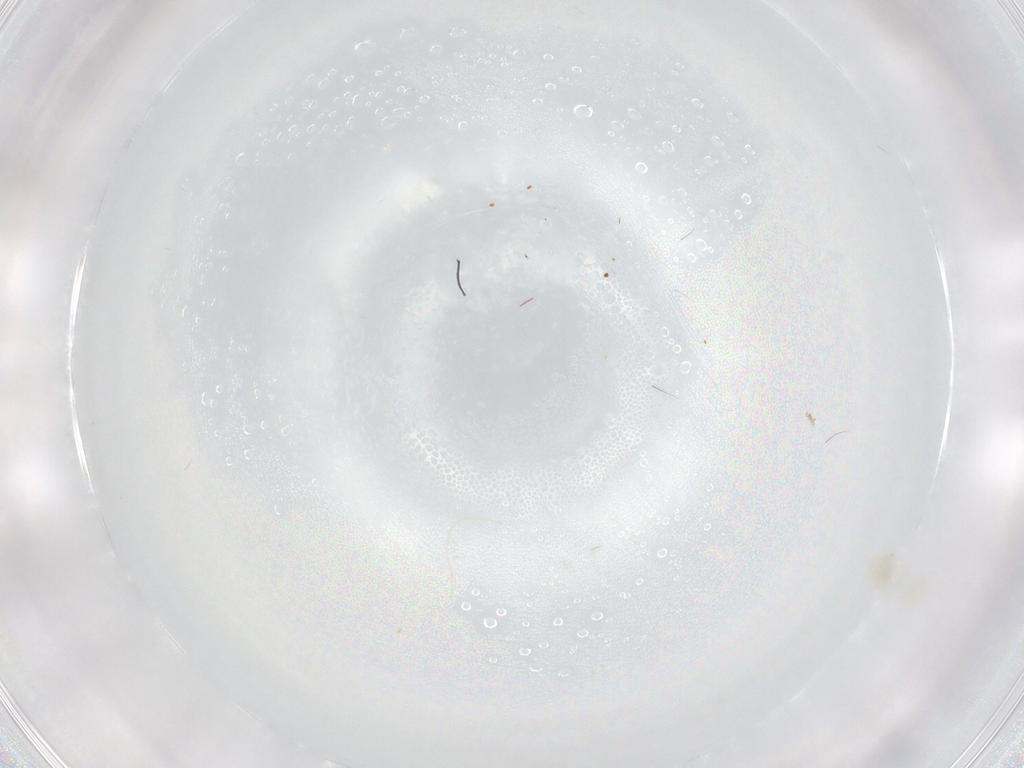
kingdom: Animalia
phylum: Arthropoda
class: Arachnida
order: Trombidiformes
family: Eupodidae
